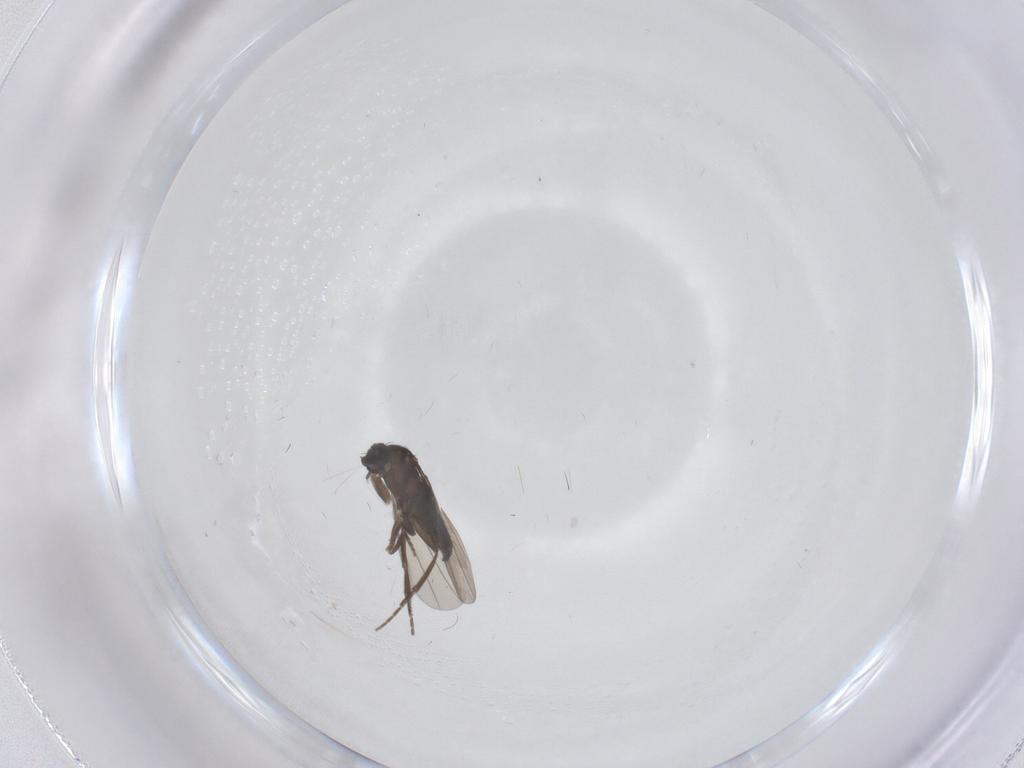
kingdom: Animalia
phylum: Arthropoda
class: Insecta
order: Diptera
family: Phoridae
